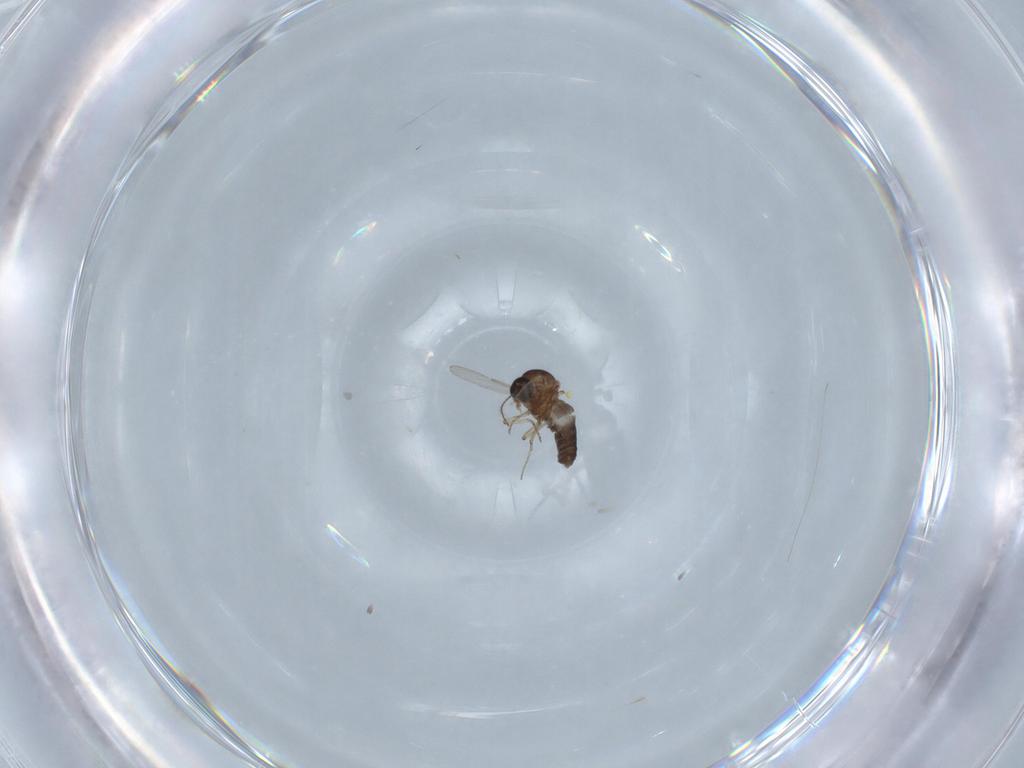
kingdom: Animalia
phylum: Arthropoda
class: Insecta
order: Diptera
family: Ceratopogonidae
